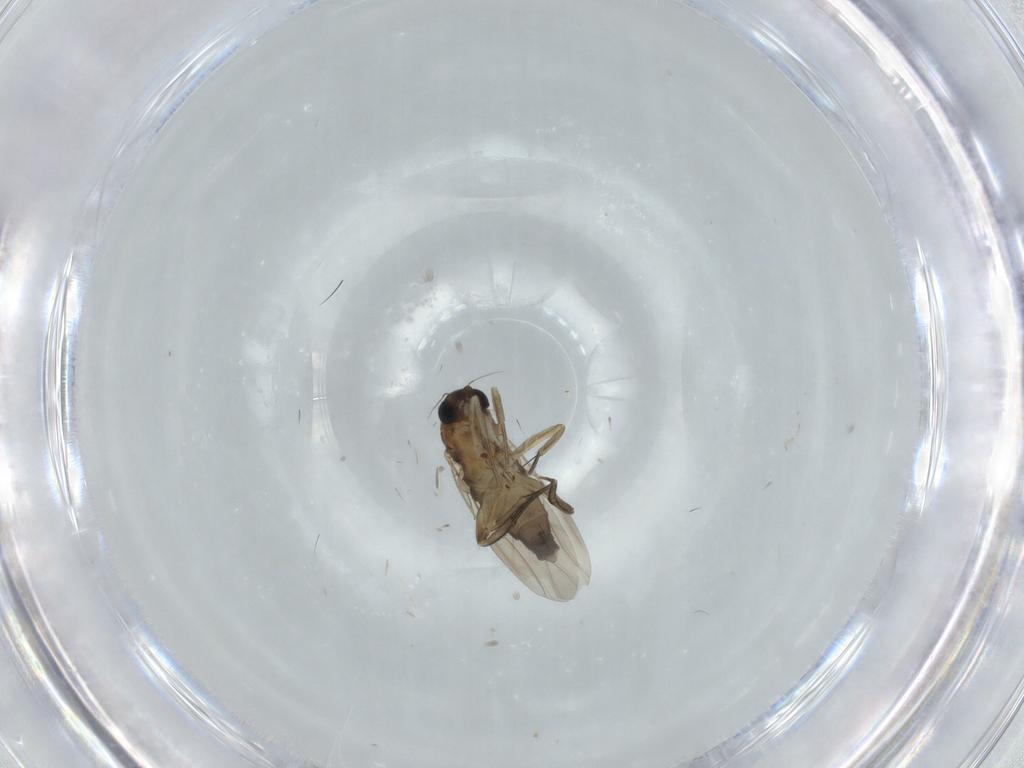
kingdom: Animalia
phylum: Arthropoda
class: Insecta
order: Diptera
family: Phoridae
